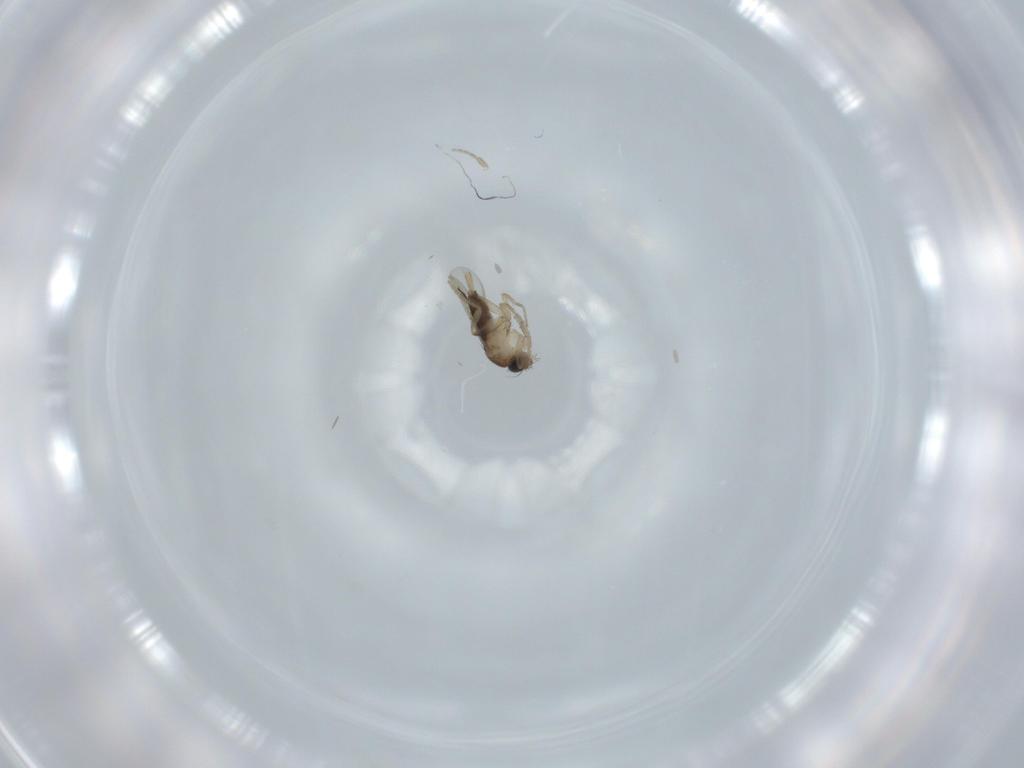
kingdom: Animalia
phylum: Arthropoda
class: Insecta
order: Diptera
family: Phoridae
